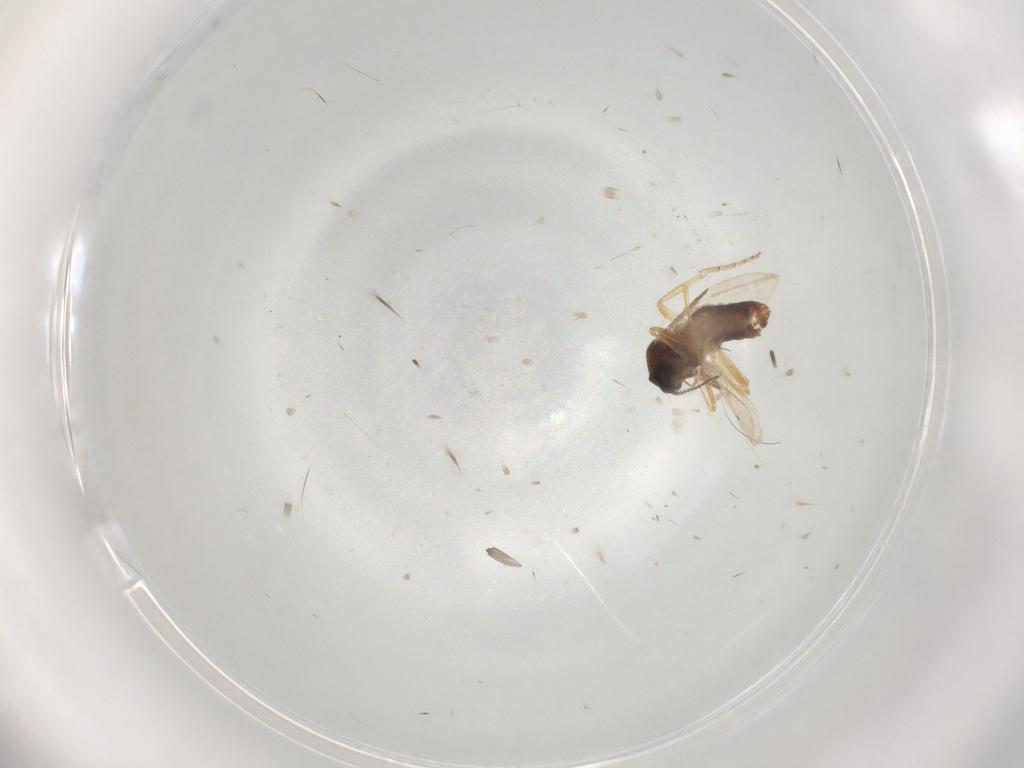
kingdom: Animalia
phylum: Arthropoda
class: Insecta
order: Diptera
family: Ceratopogonidae
